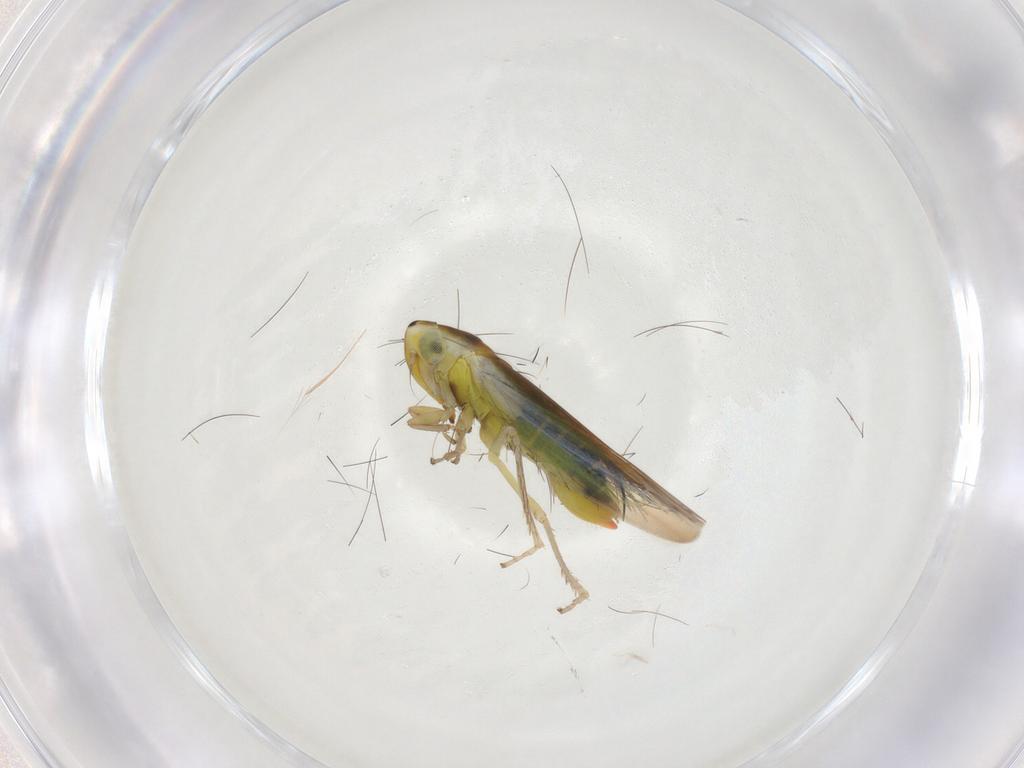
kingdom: Animalia
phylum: Arthropoda
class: Insecta
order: Hemiptera
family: Cicadellidae
